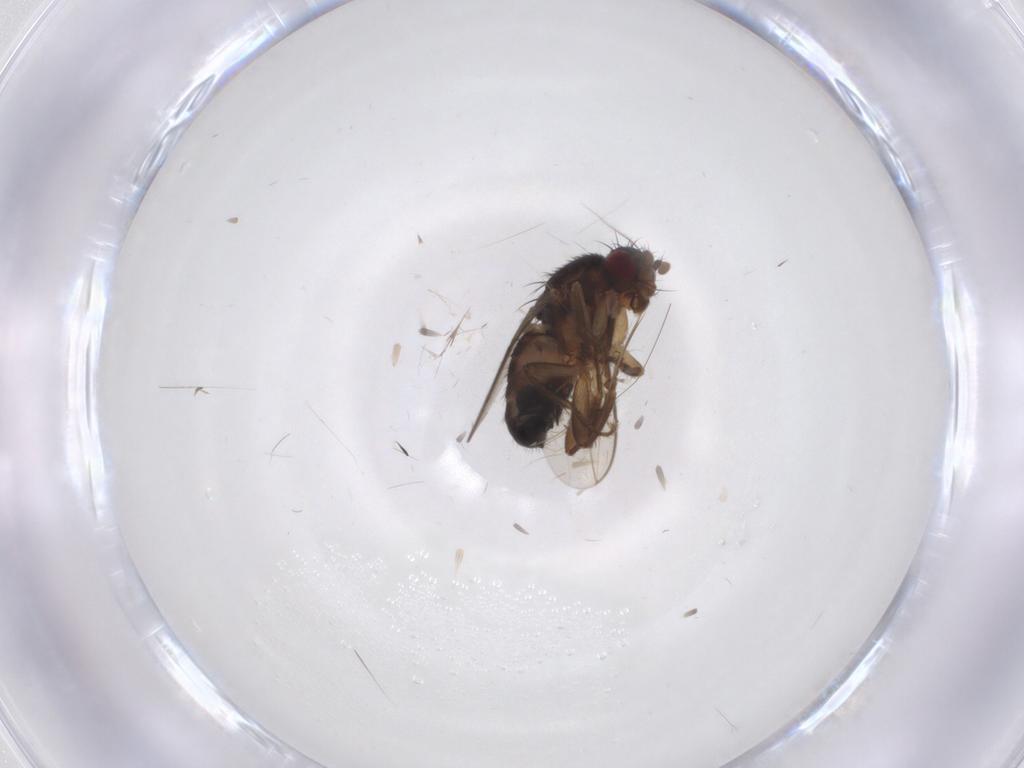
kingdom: Animalia
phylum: Arthropoda
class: Insecta
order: Diptera
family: Sphaeroceridae
